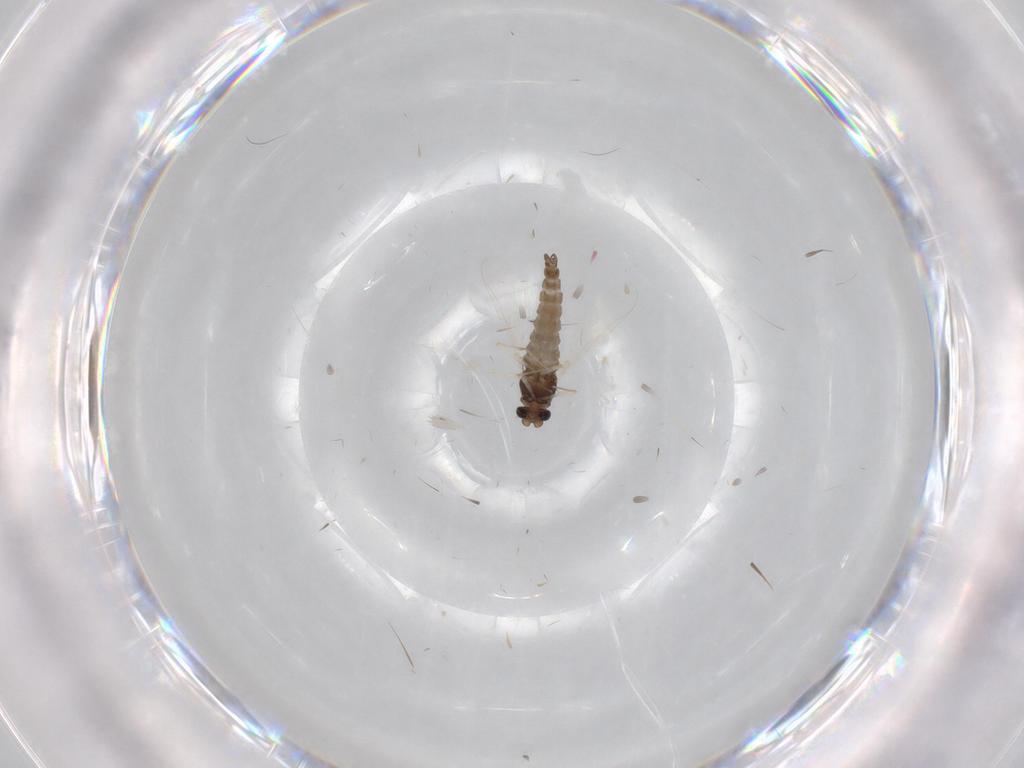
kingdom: Animalia
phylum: Arthropoda
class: Insecta
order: Diptera
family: Chironomidae
